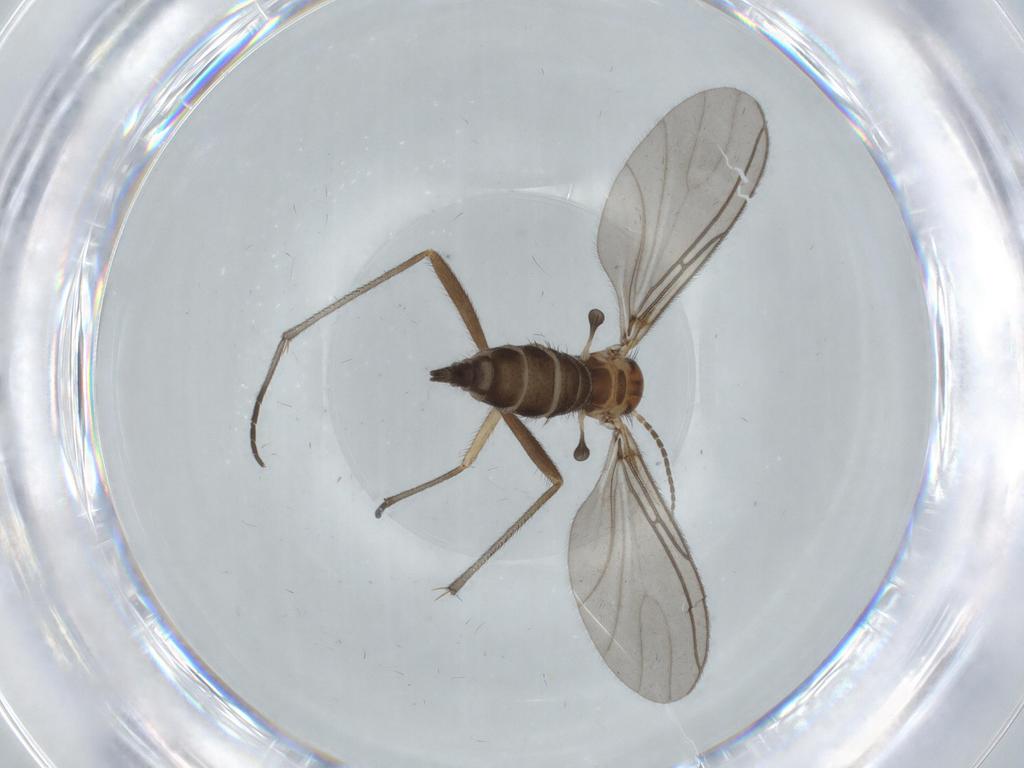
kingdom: Animalia
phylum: Arthropoda
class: Insecta
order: Diptera
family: Sciaridae
